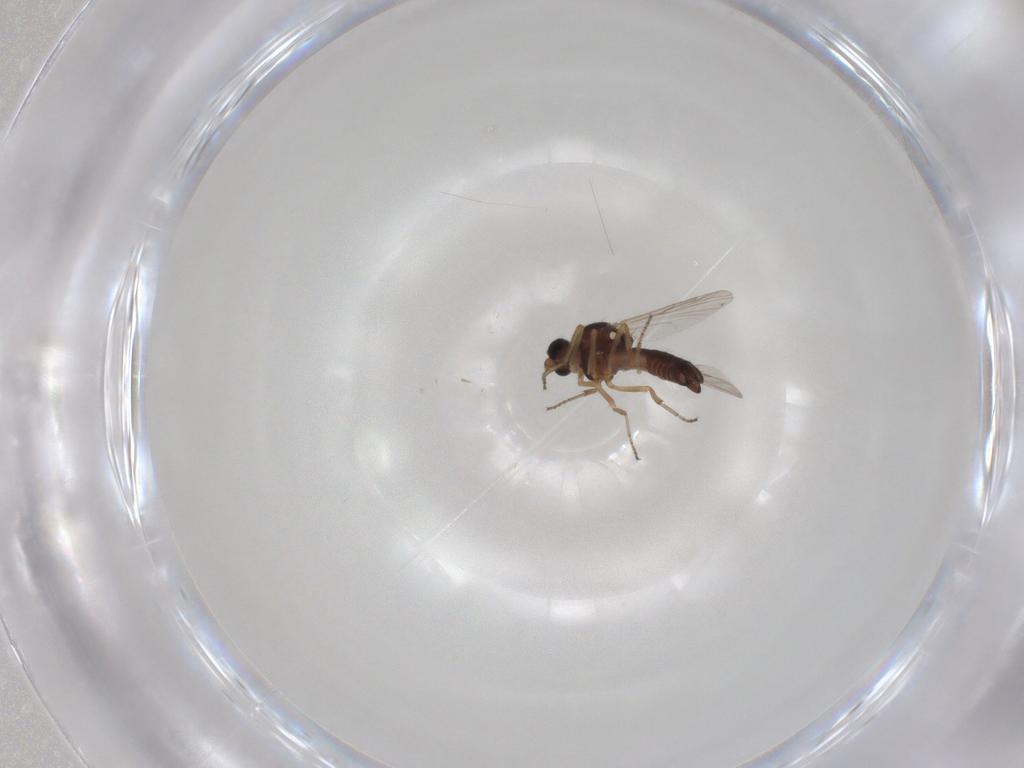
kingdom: Animalia
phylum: Arthropoda
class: Insecta
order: Diptera
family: Ceratopogonidae
